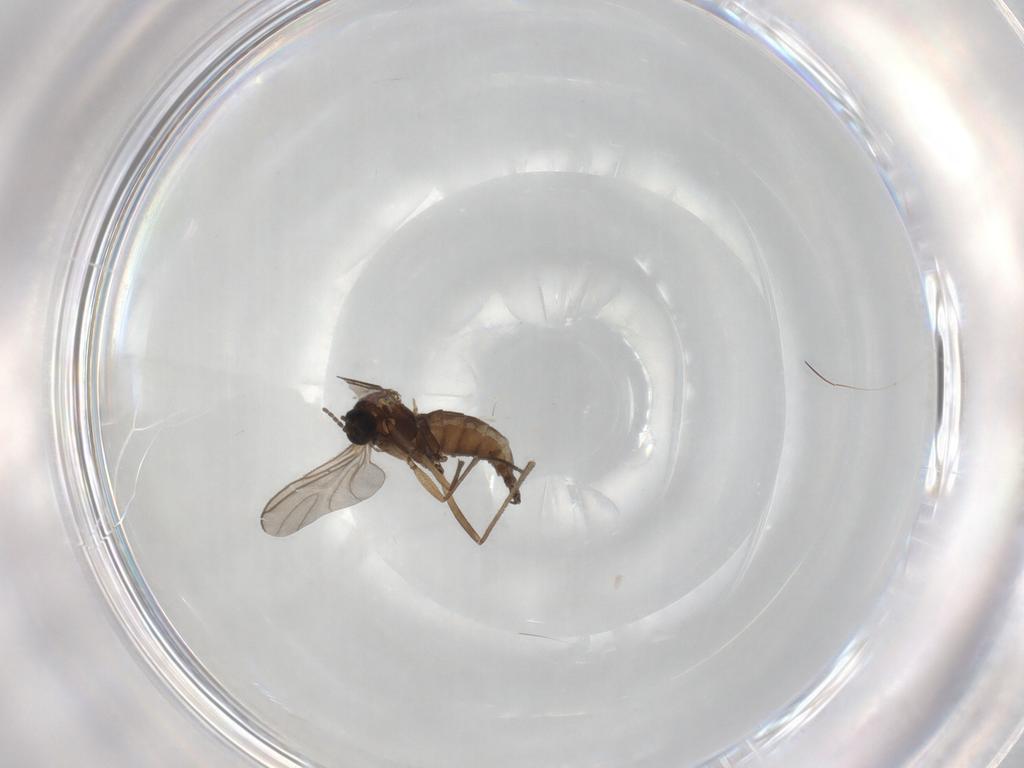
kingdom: Animalia
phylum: Arthropoda
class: Insecta
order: Diptera
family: Sciaridae
